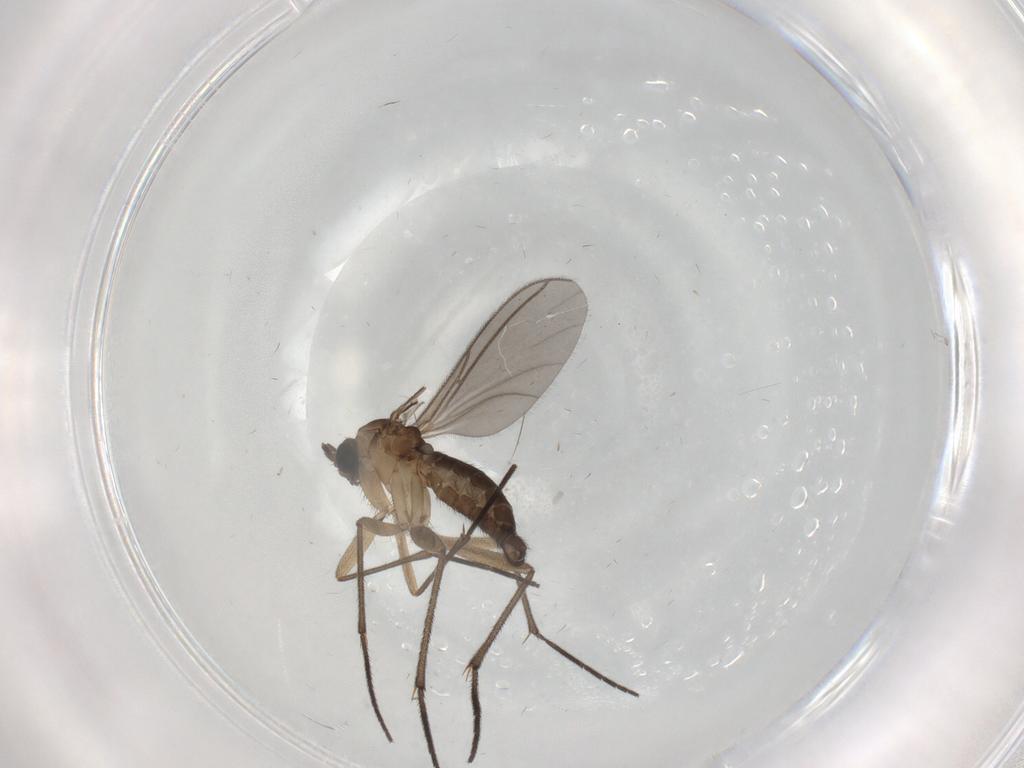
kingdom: Animalia
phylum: Arthropoda
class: Insecta
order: Diptera
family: Sciaridae
